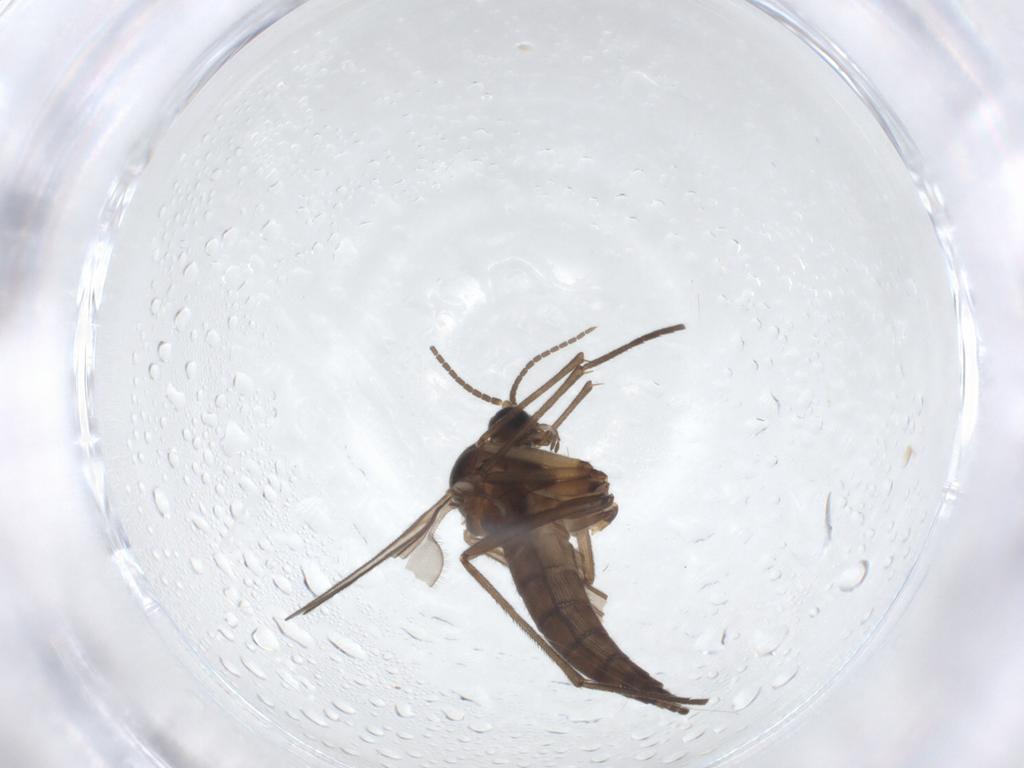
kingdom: Animalia
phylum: Arthropoda
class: Insecta
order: Diptera
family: Sciaridae
